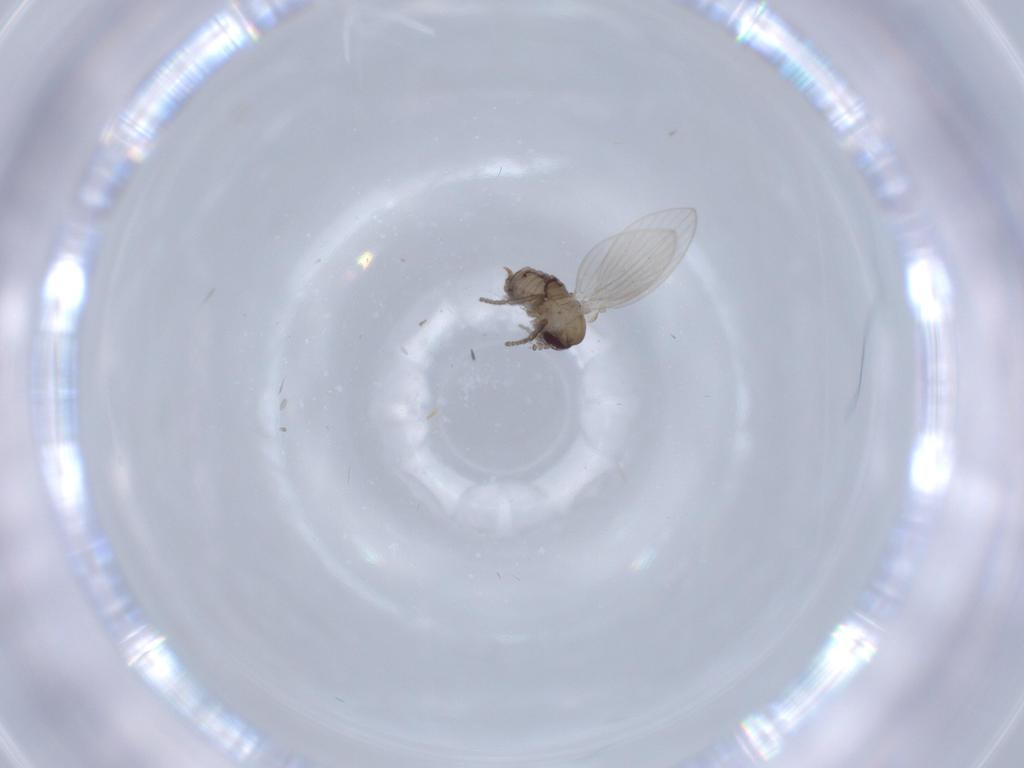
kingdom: Animalia
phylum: Arthropoda
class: Insecta
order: Diptera
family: Psychodidae
